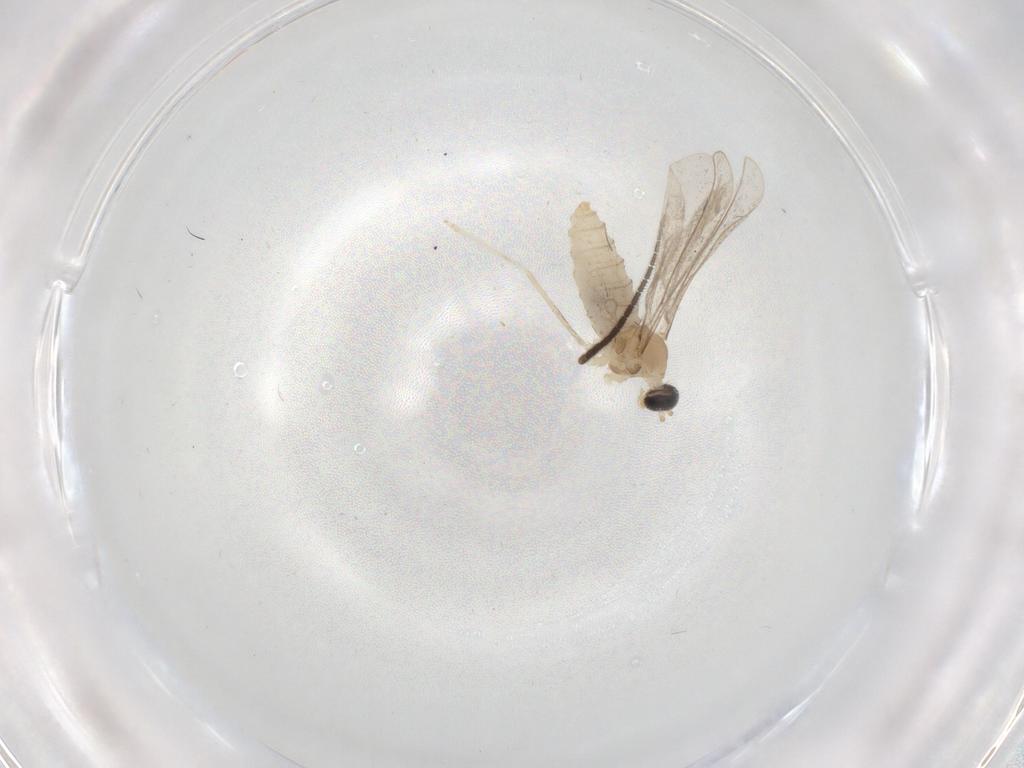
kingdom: Animalia
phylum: Arthropoda
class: Insecta
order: Diptera
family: Cecidomyiidae
